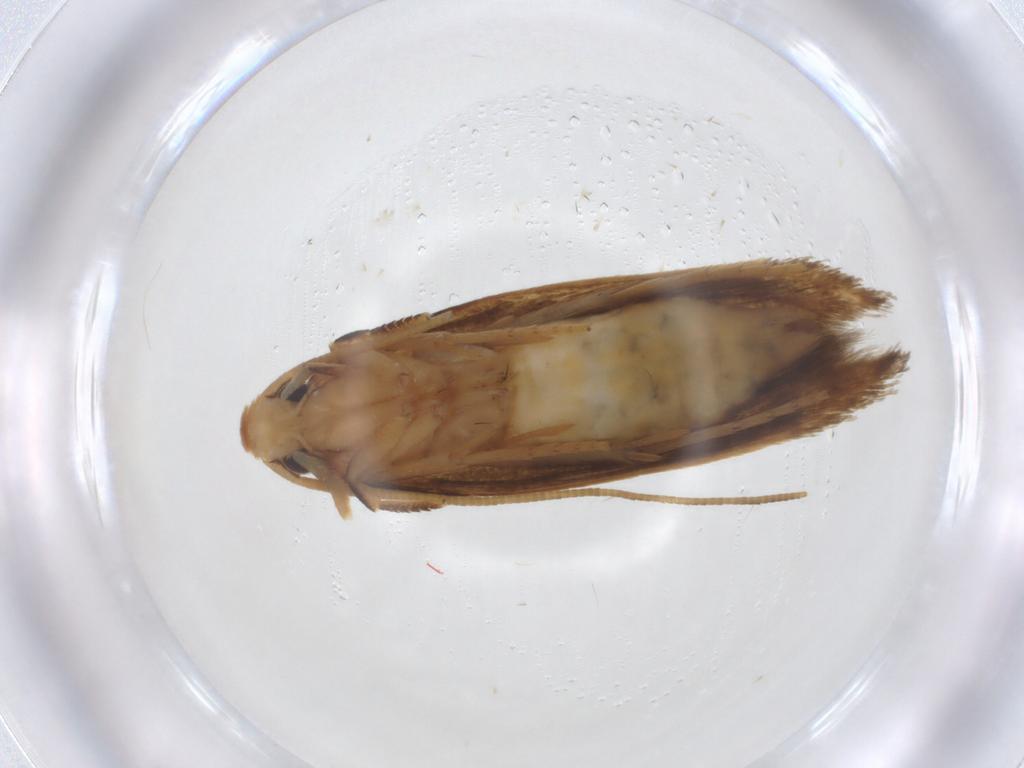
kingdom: Animalia
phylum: Arthropoda
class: Insecta
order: Lepidoptera
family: Tineidae
